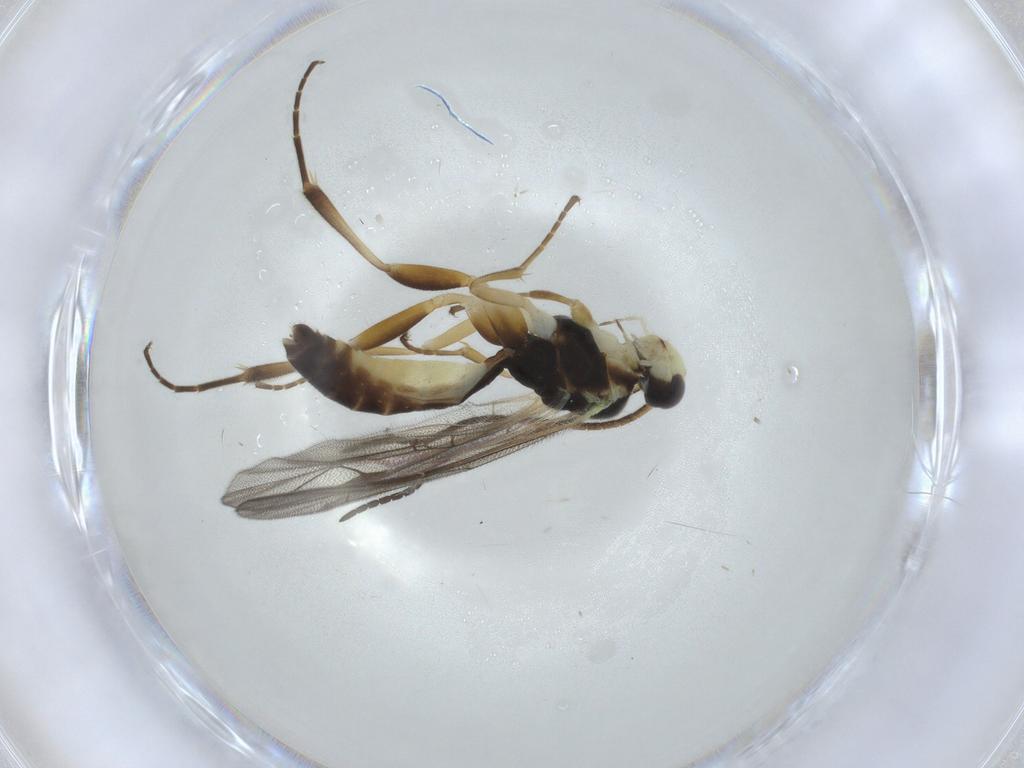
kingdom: Animalia
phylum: Arthropoda
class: Insecta
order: Hymenoptera
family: Ichneumonidae
